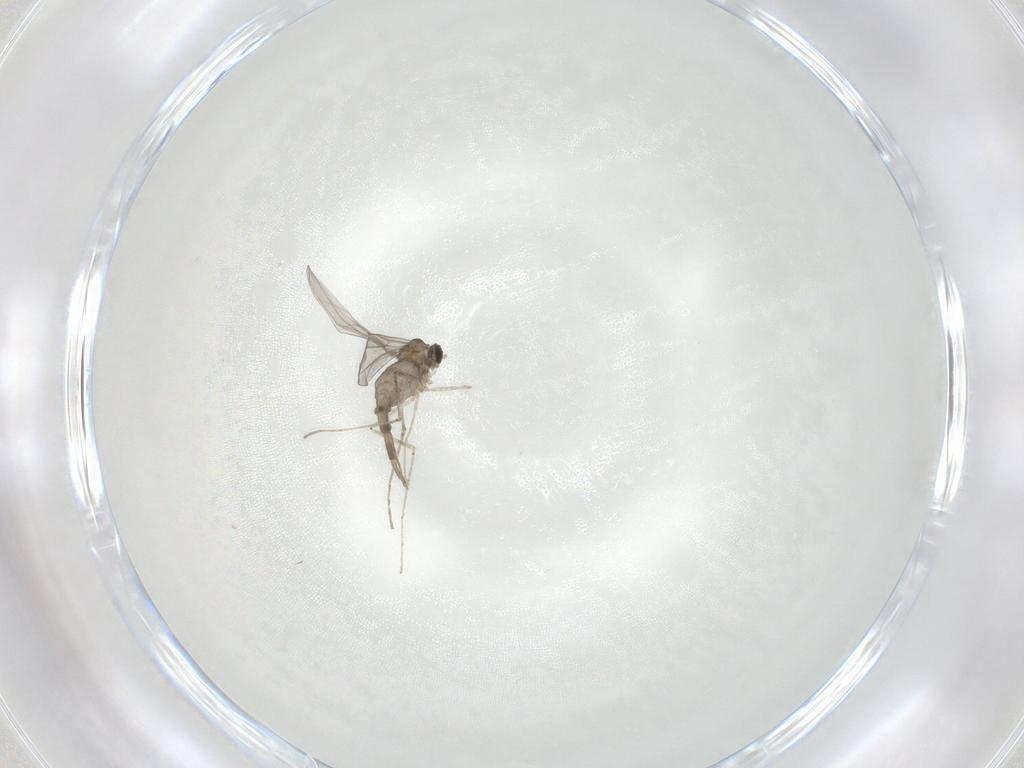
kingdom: Animalia
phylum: Arthropoda
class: Insecta
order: Diptera
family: Cecidomyiidae
